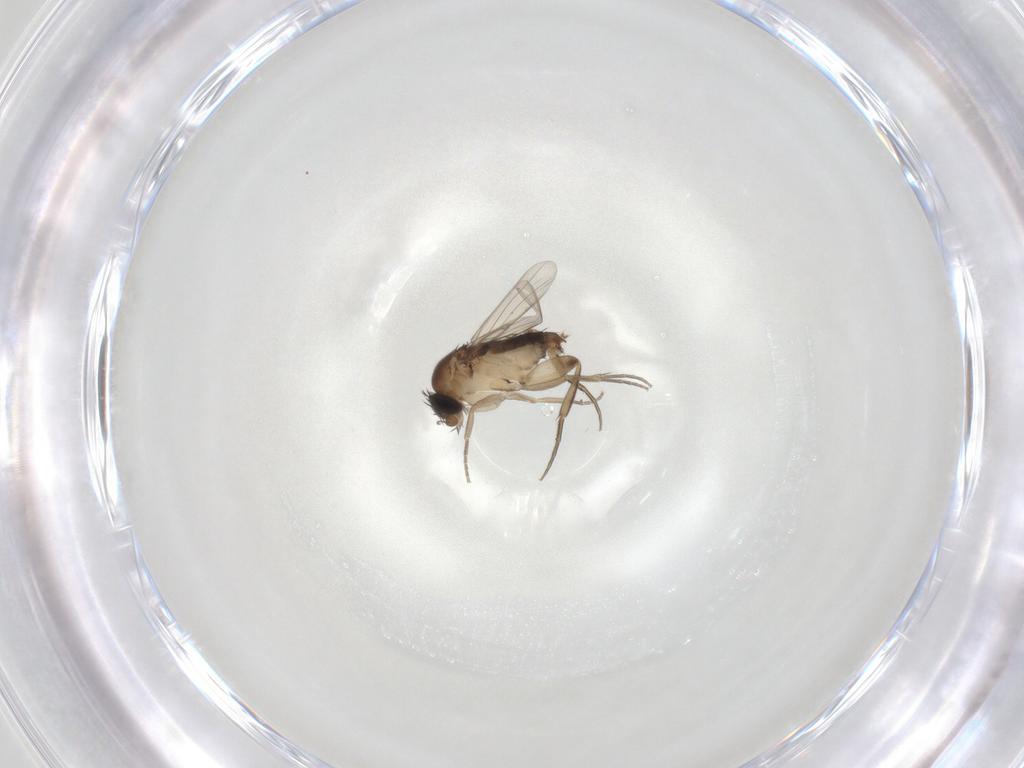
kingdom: Animalia
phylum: Arthropoda
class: Insecta
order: Diptera
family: Phoridae
